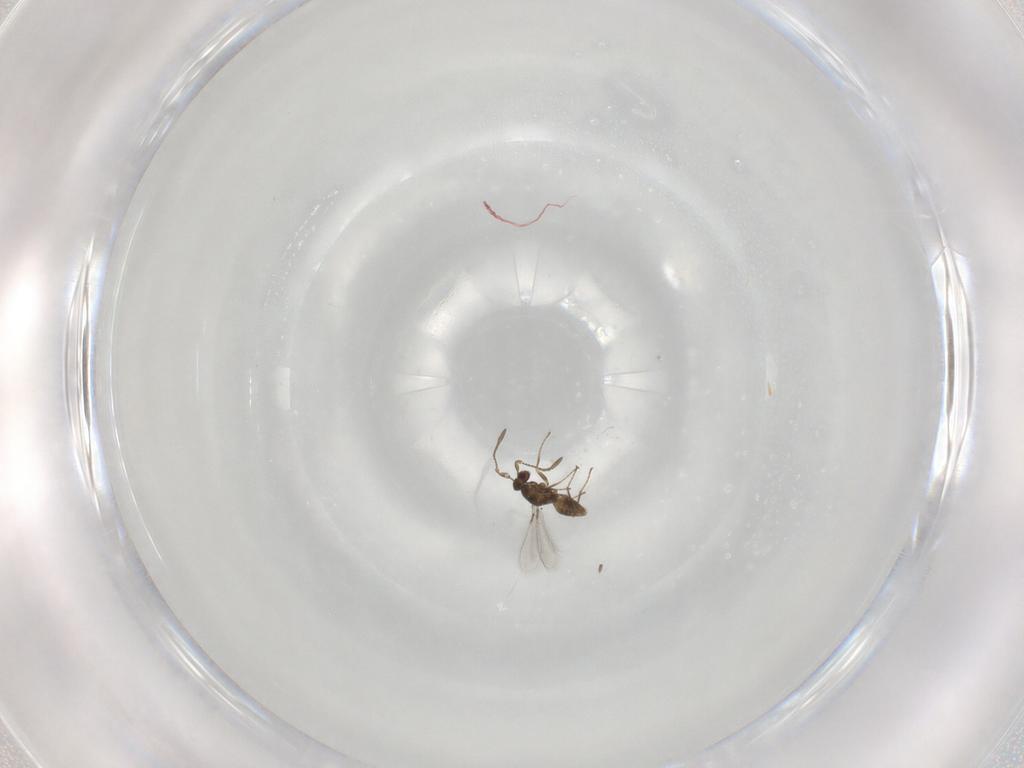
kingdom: Animalia
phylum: Arthropoda
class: Insecta
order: Hymenoptera
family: Mymaridae
